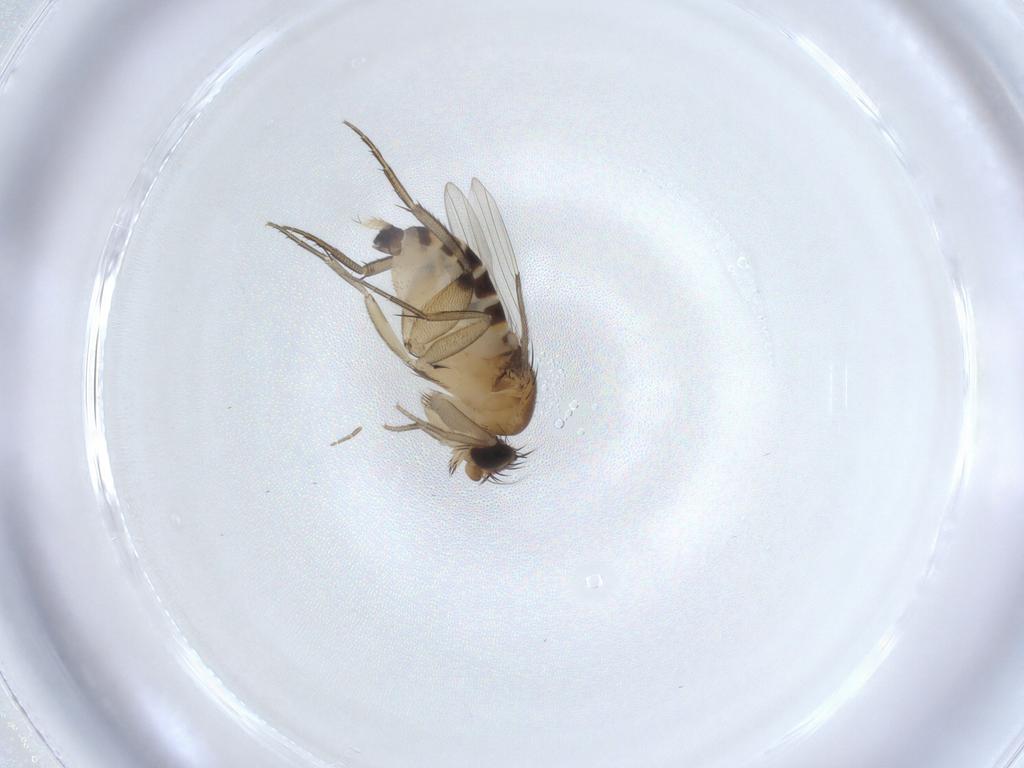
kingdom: Animalia
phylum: Arthropoda
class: Insecta
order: Diptera
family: Phoridae
